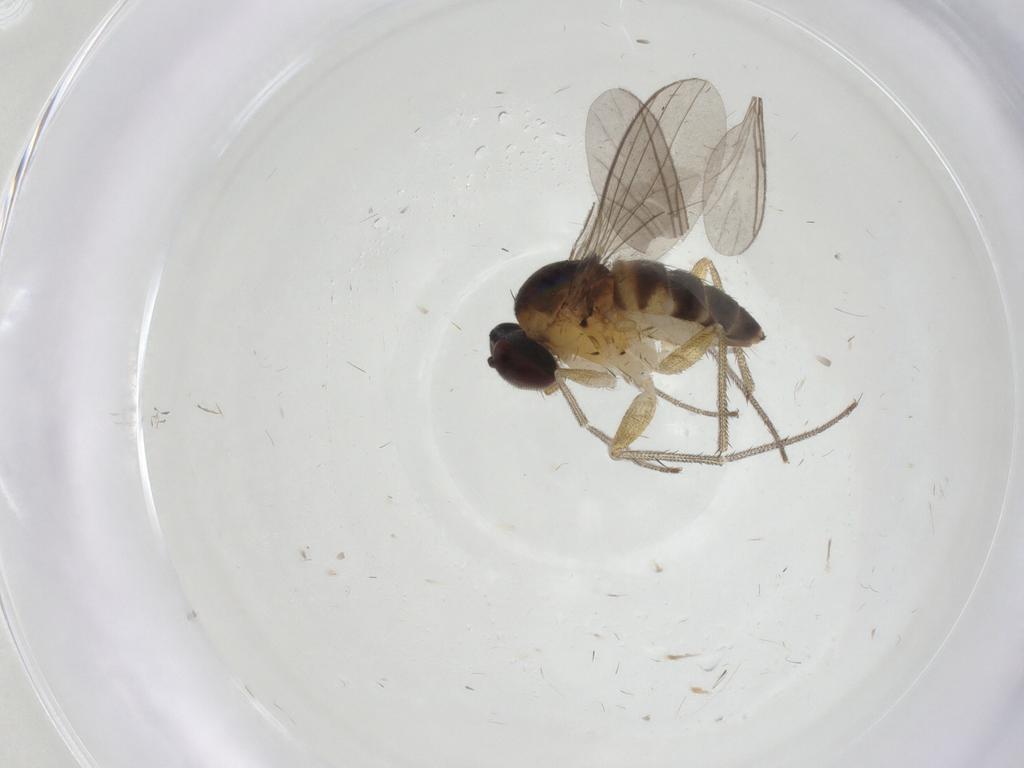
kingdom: Animalia
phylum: Arthropoda
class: Insecta
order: Diptera
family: Dolichopodidae
